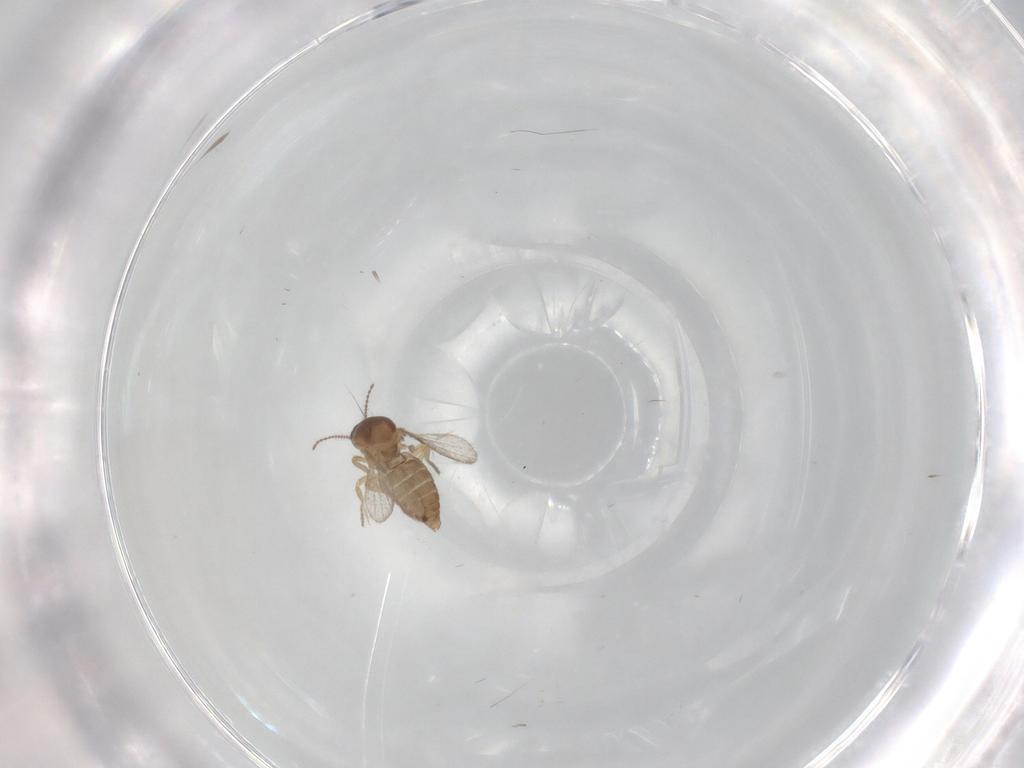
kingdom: Animalia
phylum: Arthropoda
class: Insecta
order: Diptera
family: Ceratopogonidae
